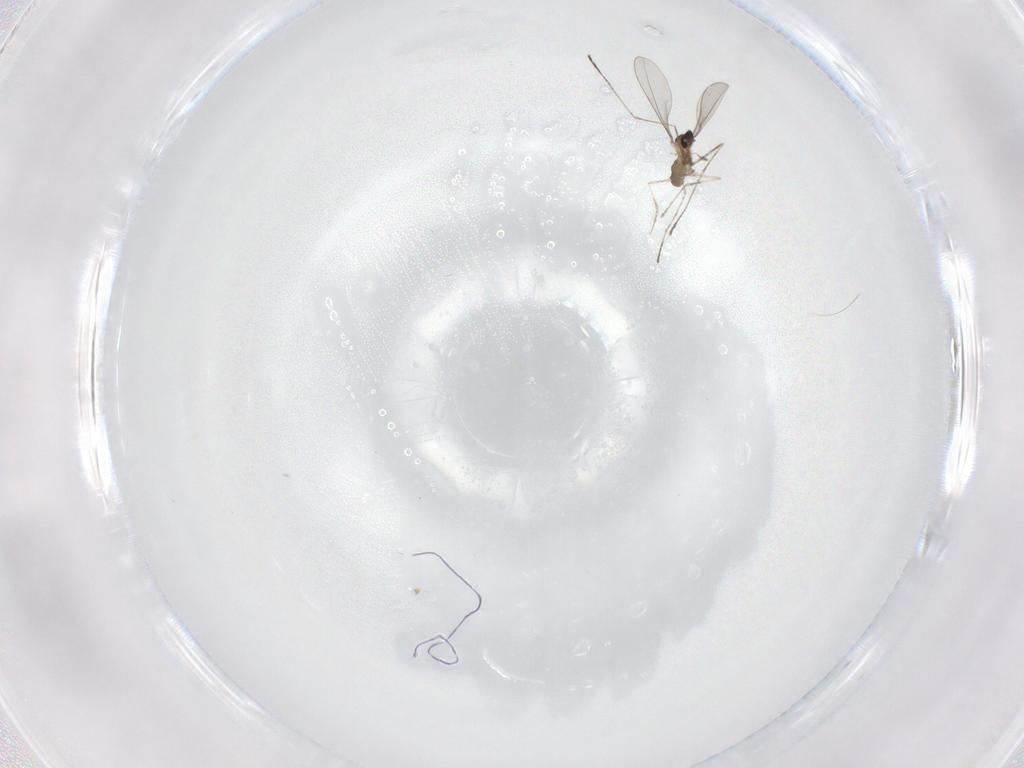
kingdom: Animalia
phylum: Arthropoda
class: Insecta
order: Diptera
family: Cecidomyiidae
